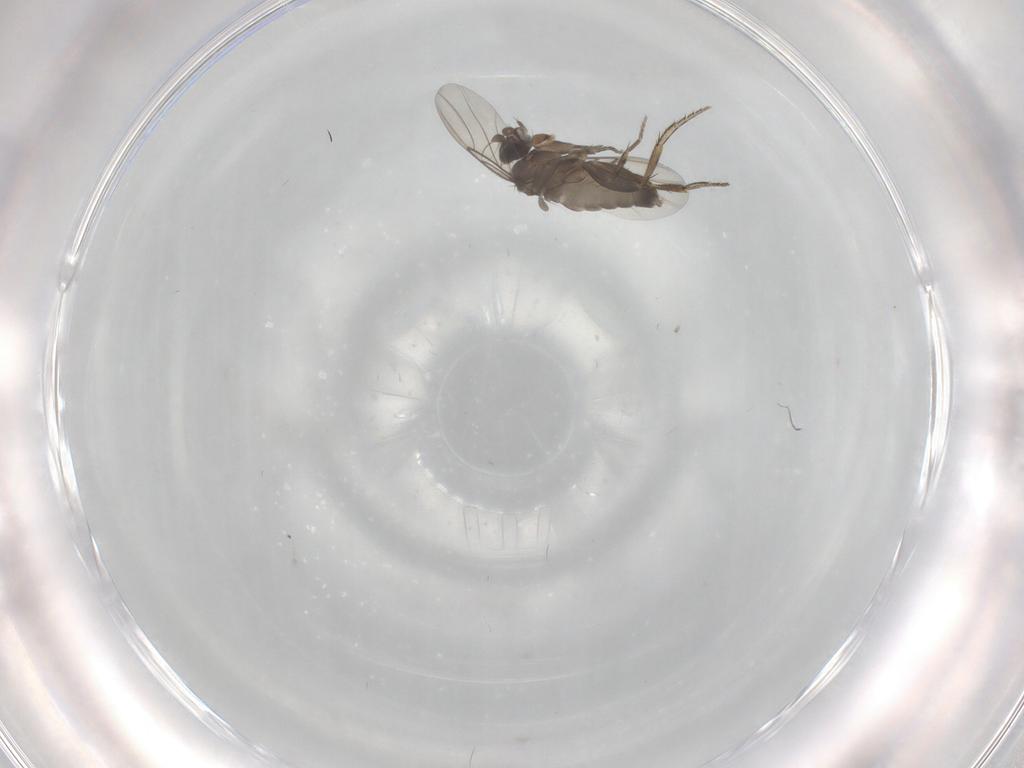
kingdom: Animalia
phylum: Arthropoda
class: Insecta
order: Diptera
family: Phoridae
